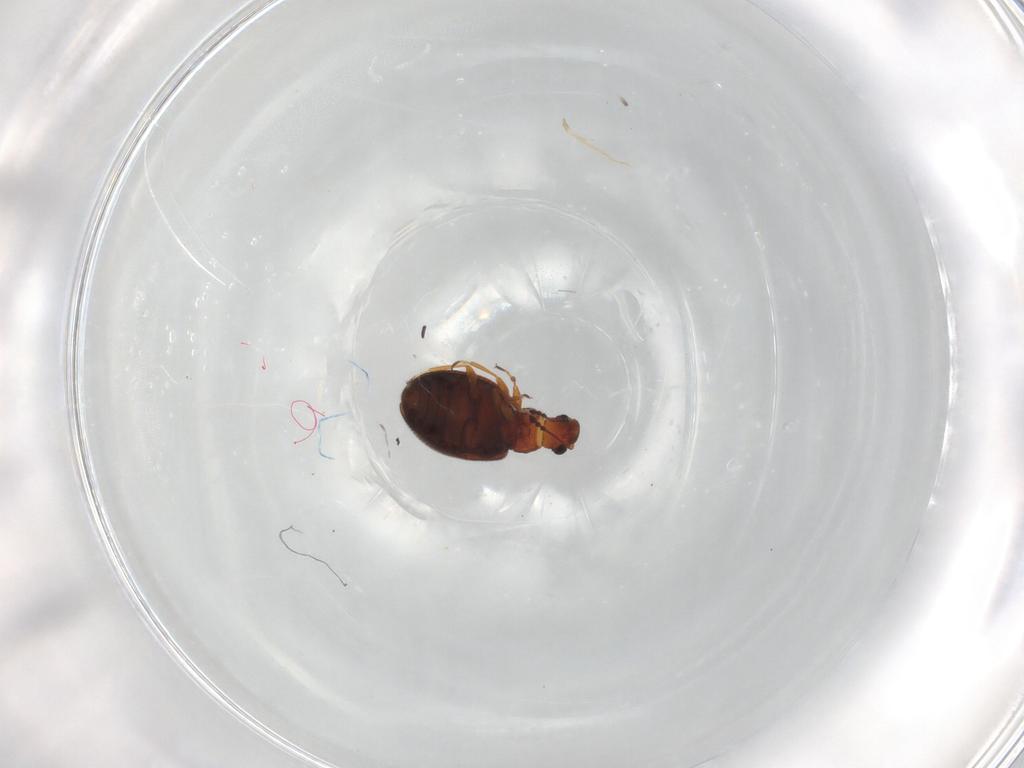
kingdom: Animalia
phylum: Arthropoda
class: Insecta
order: Coleoptera
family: Latridiidae
